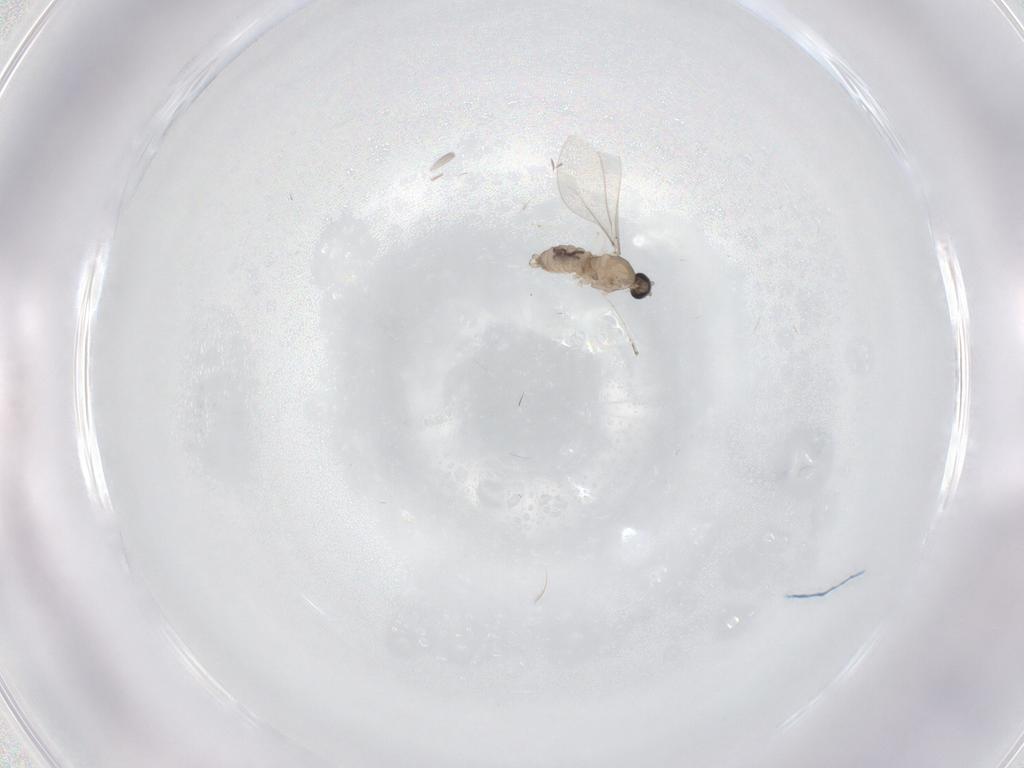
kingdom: Animalia
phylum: Arthropoda
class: Insecta
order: Diptera
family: Cecidomyiidae
